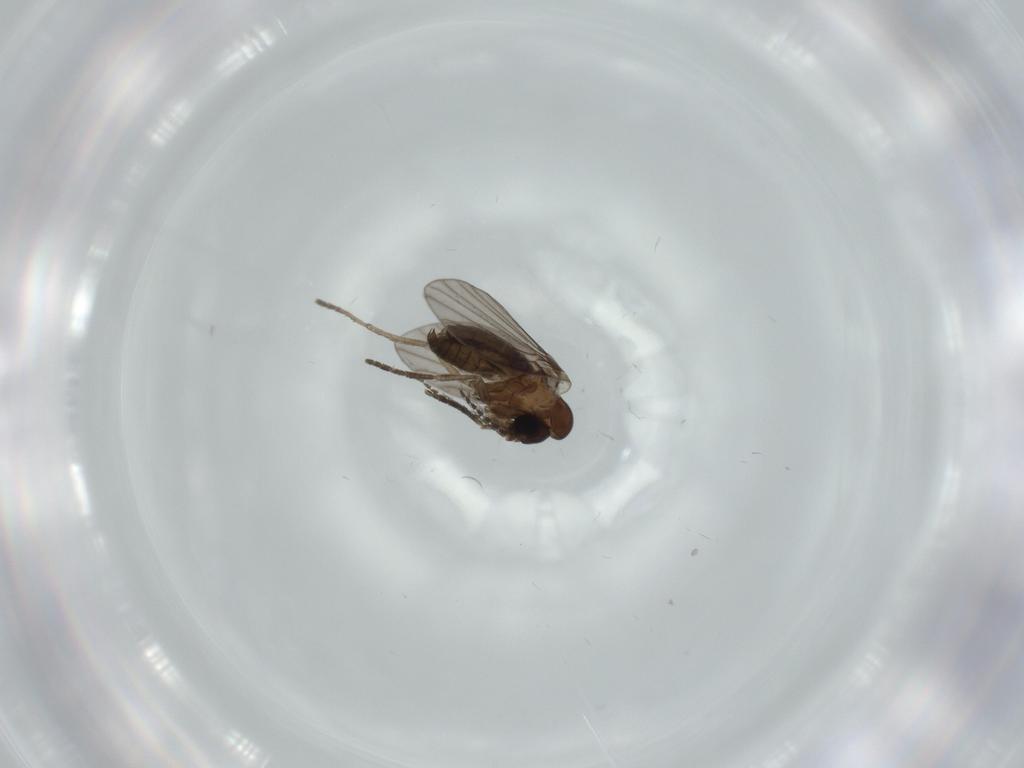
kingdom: Animalia
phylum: Arthropoda
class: Insecta
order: Diptera
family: Psychodidae
